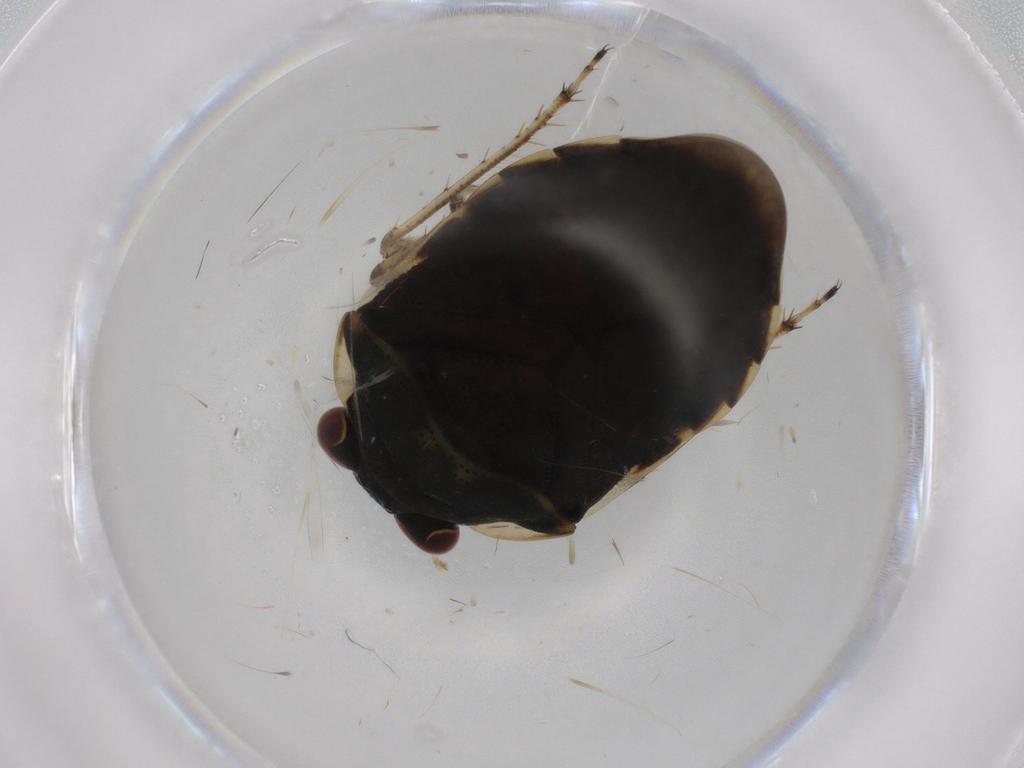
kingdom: Animalia
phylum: Arthropoda
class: Insecta
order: Hemiptera
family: Ochteridae
